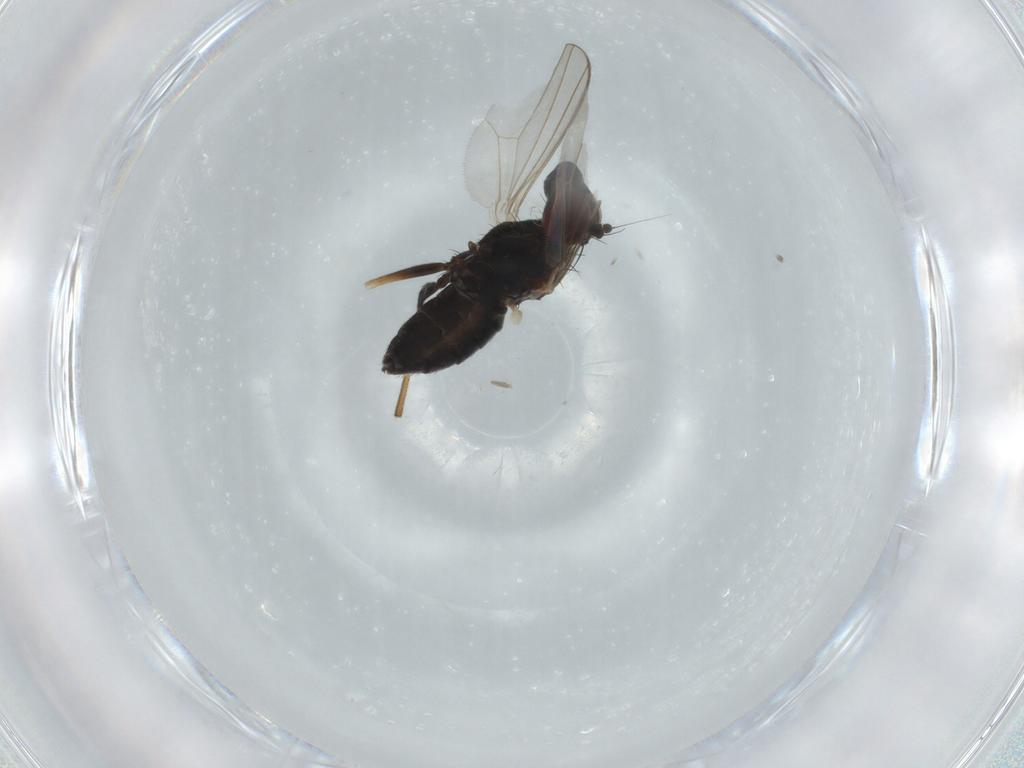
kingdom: Animalia
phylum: Arthropoda
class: Insecta
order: Diptera
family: Dolichopodidae
